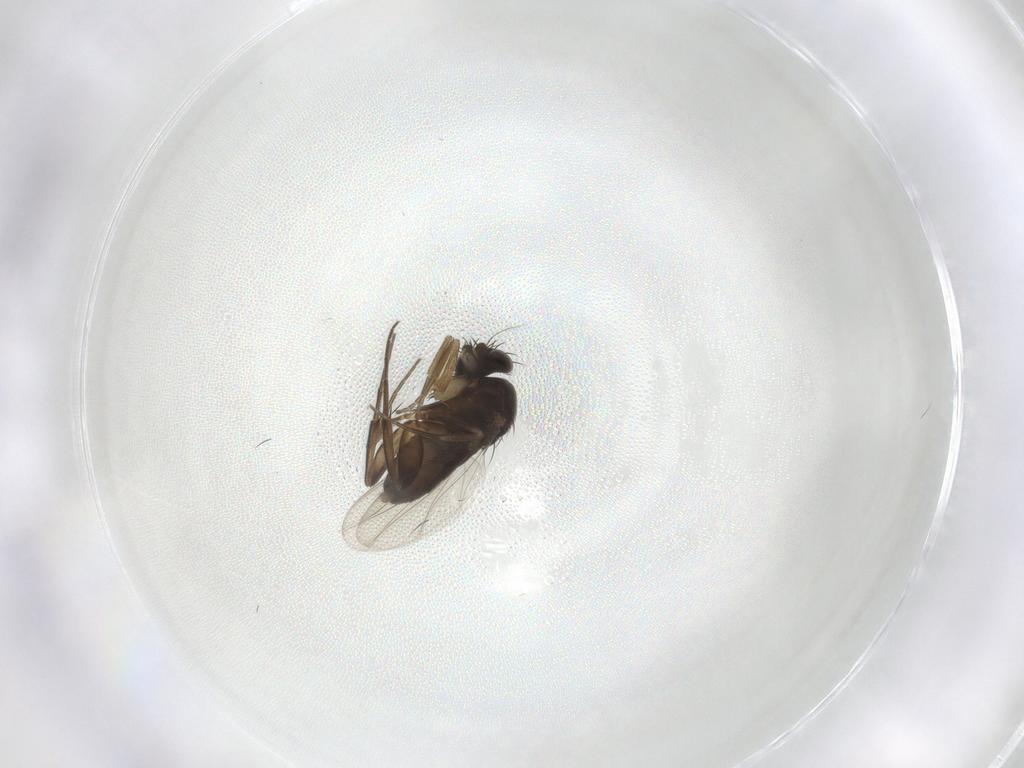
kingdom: Animalia
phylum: Arthropoda
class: Insecta
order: Diptera
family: Phoridae
